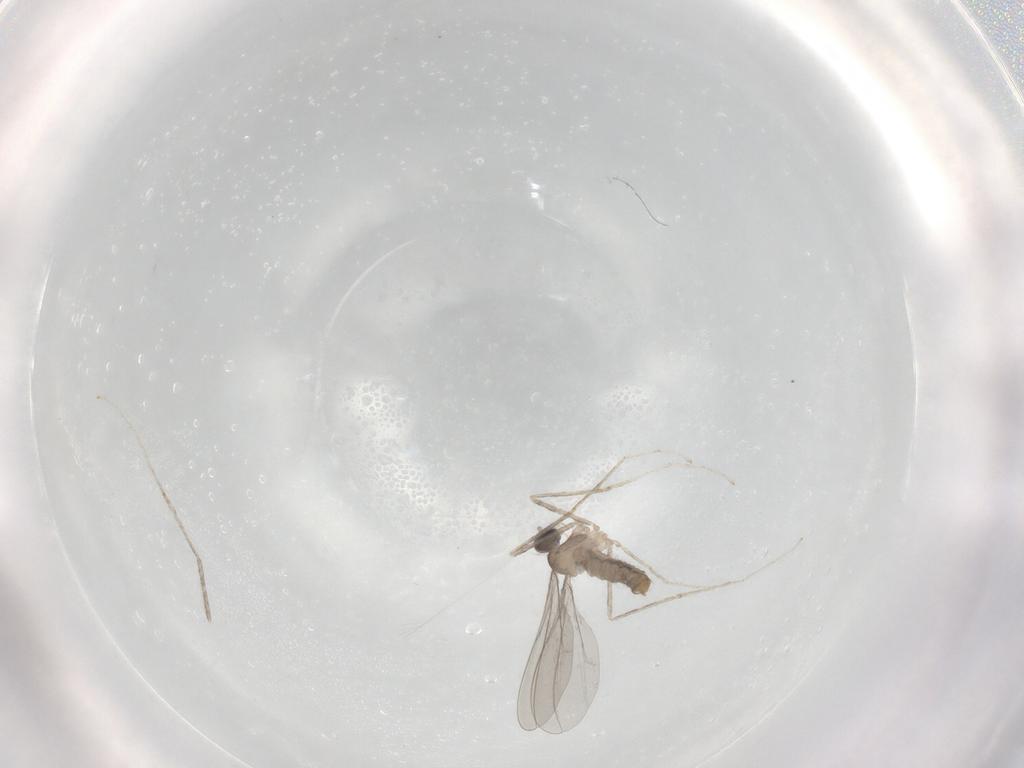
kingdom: Animalia
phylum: Arthropoda
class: Insecta
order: Diptera
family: Cecidomyiidae
